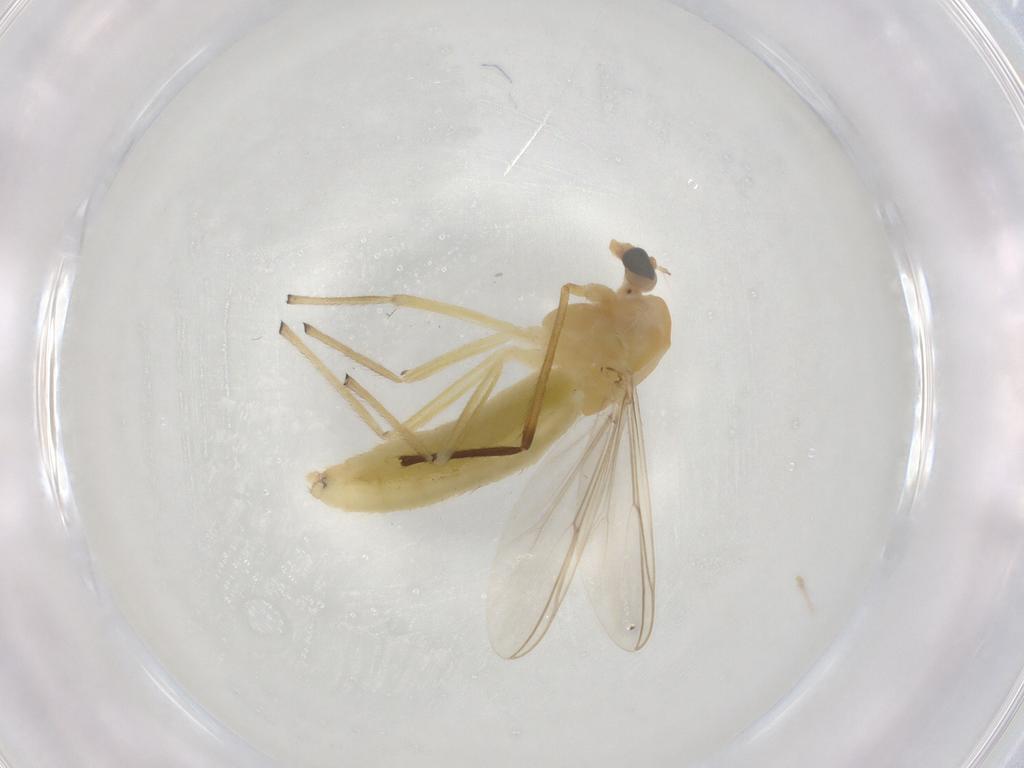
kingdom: Animalia
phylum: Arthropoda
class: Insecta
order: Diptera
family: Chironomidae
